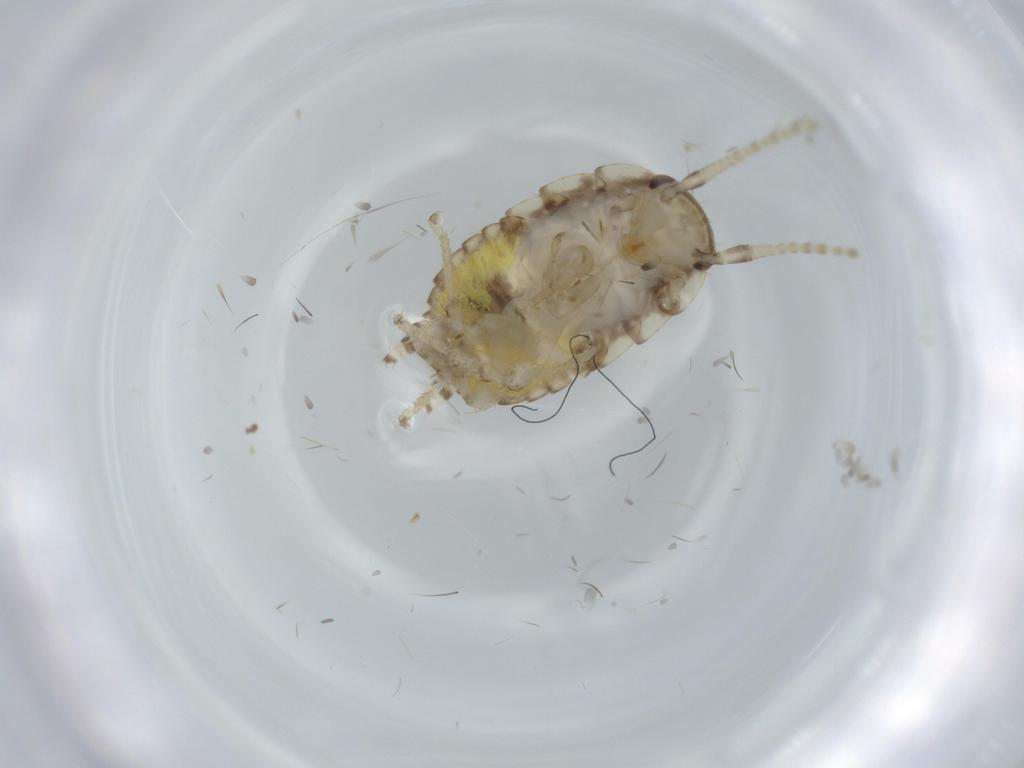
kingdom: Animalia
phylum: Arthropoda
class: Insecta
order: Blattodea
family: Ectobiidae
